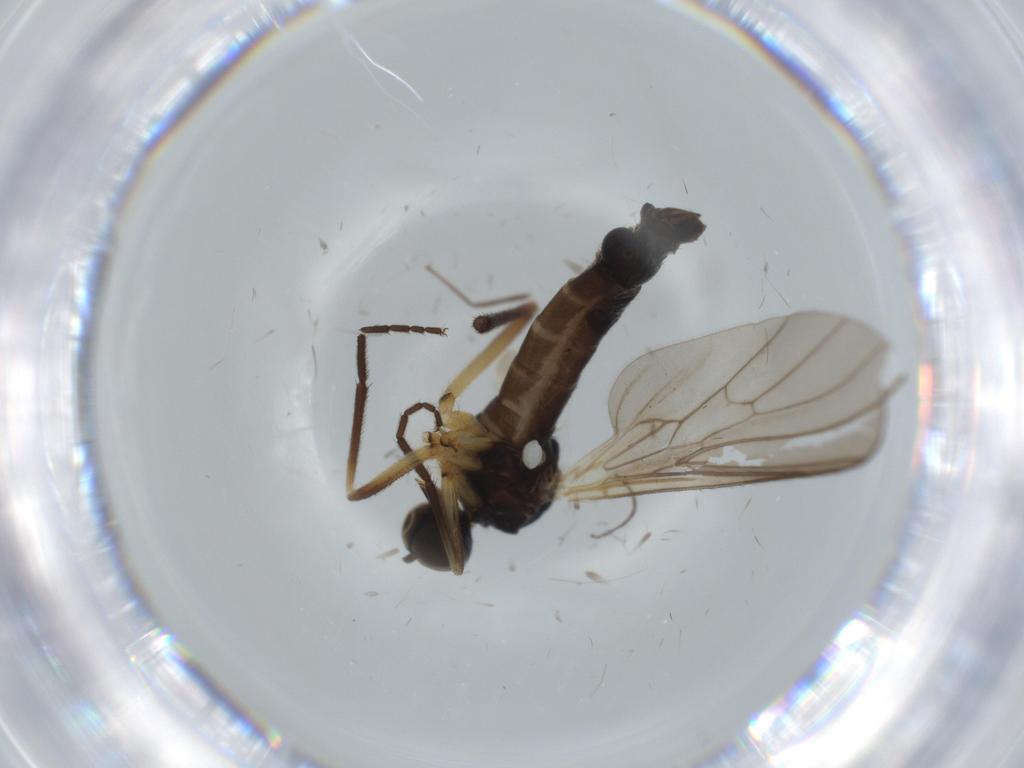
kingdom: Animalia
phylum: Arthropoda
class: Insecta
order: Diptera
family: Empididae
